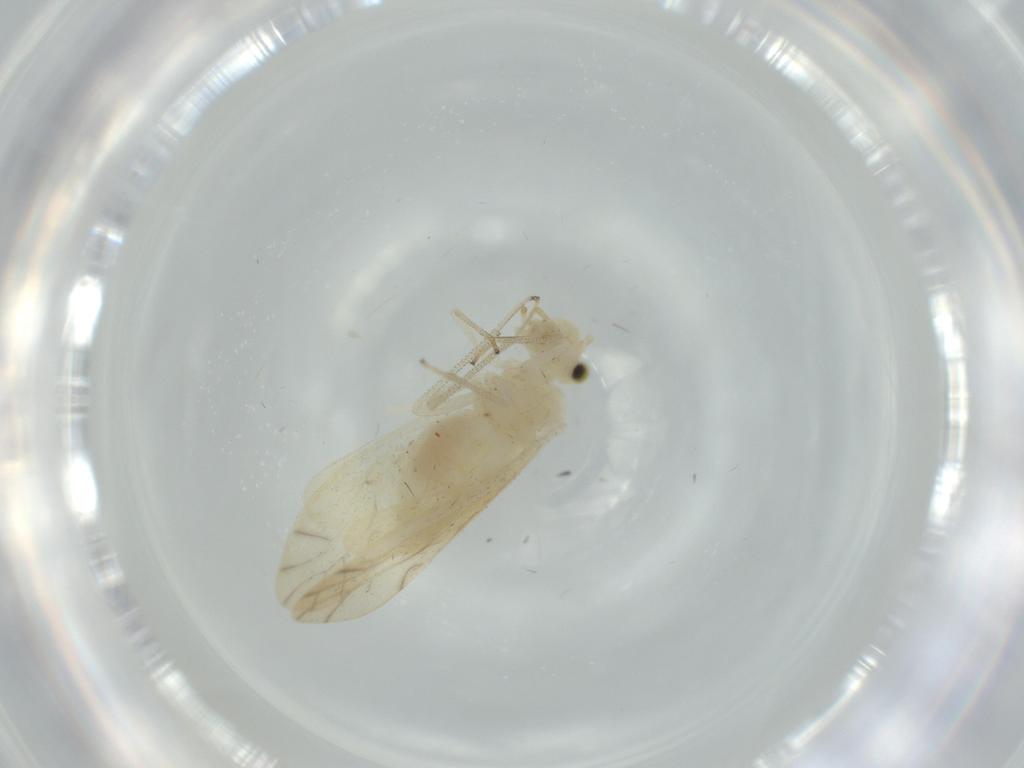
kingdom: Animalia
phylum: Arthropoda
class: Insecta
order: Psocodea
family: Caeciliusidae
